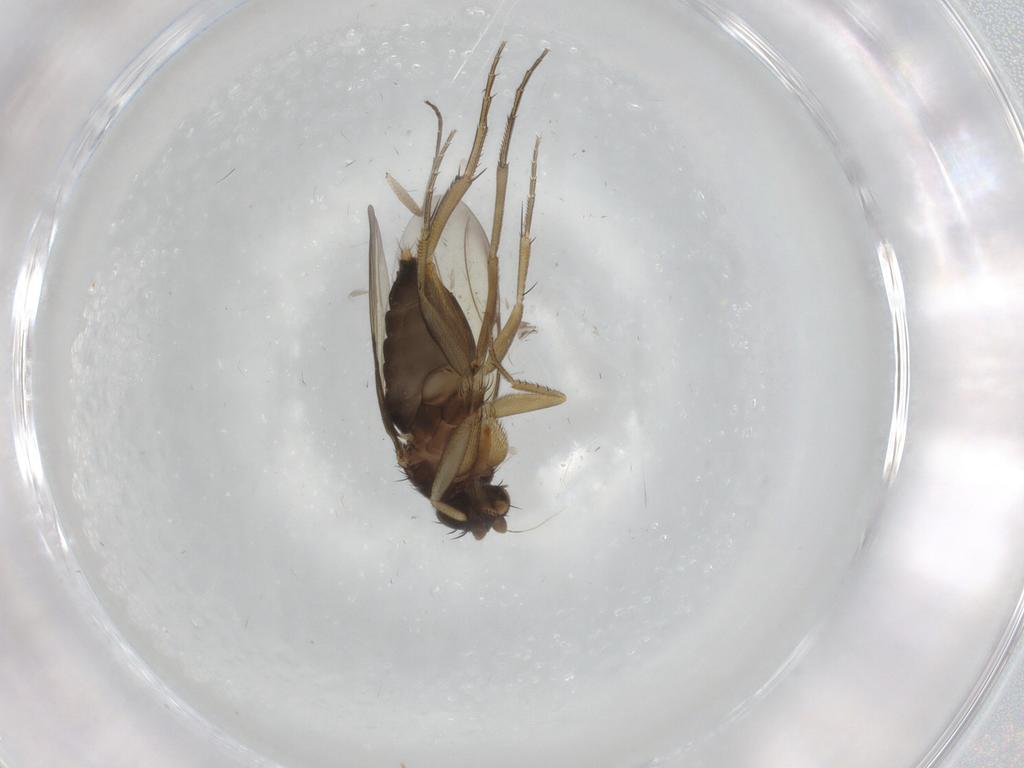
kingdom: Animalia
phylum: Arthropoda
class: Insecta
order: Diptera
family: Phoridae
